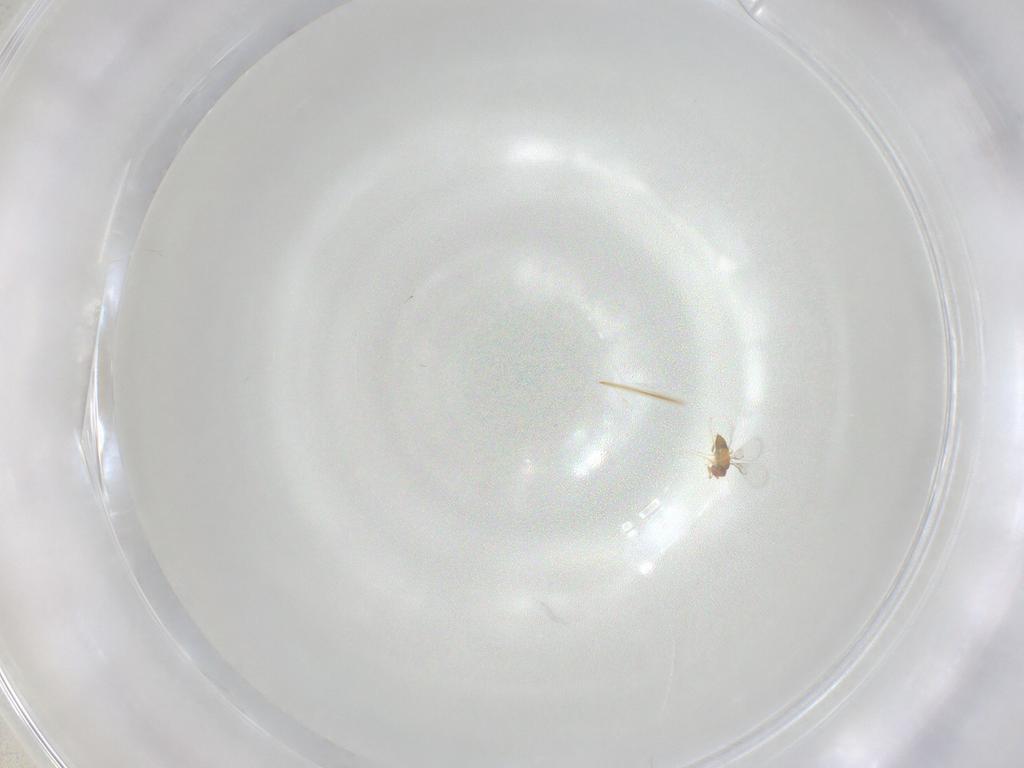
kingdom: Animalia
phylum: Arthropoda
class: Insecta
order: Hymenoptera
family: Trichogrammatidae
